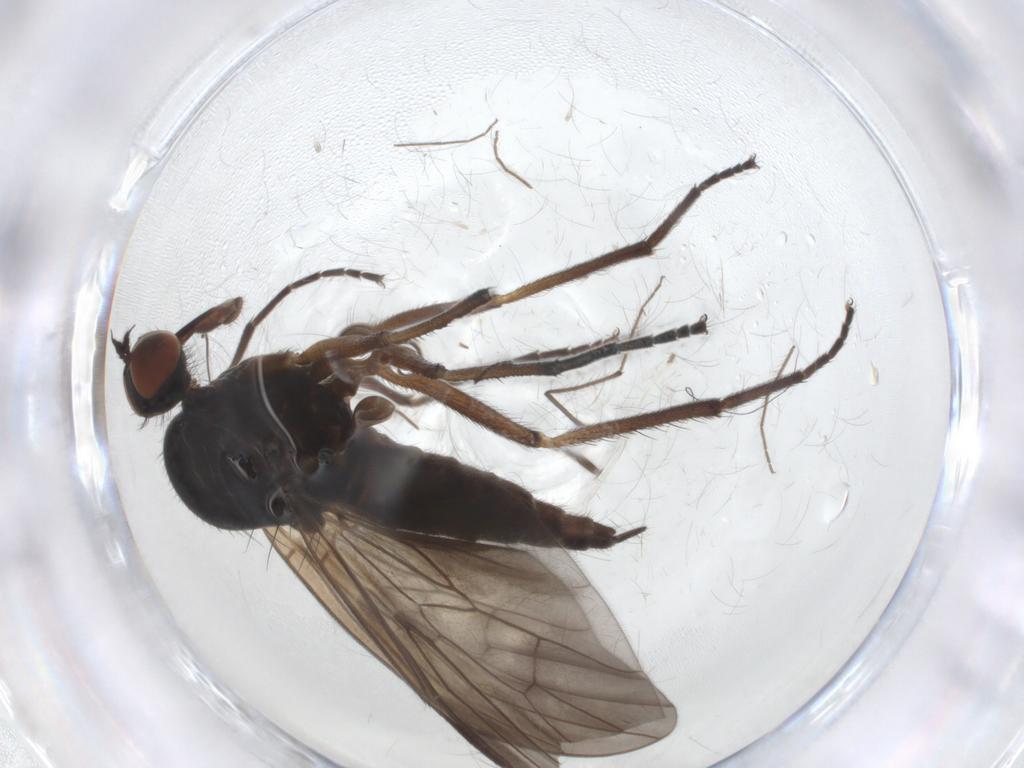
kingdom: Animalia
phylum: Arthropoda
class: Insecta
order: Diptera
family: Empididae
